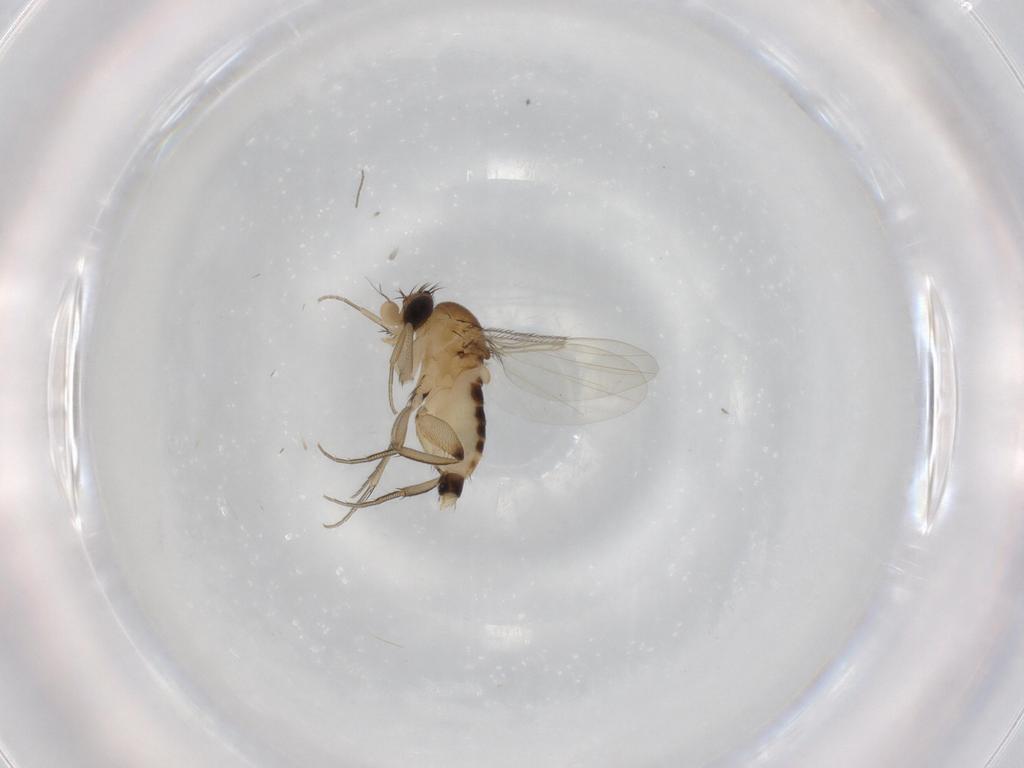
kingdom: Animalia
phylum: Arthropoda
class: Insecta
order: Diptera
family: Phoridae
